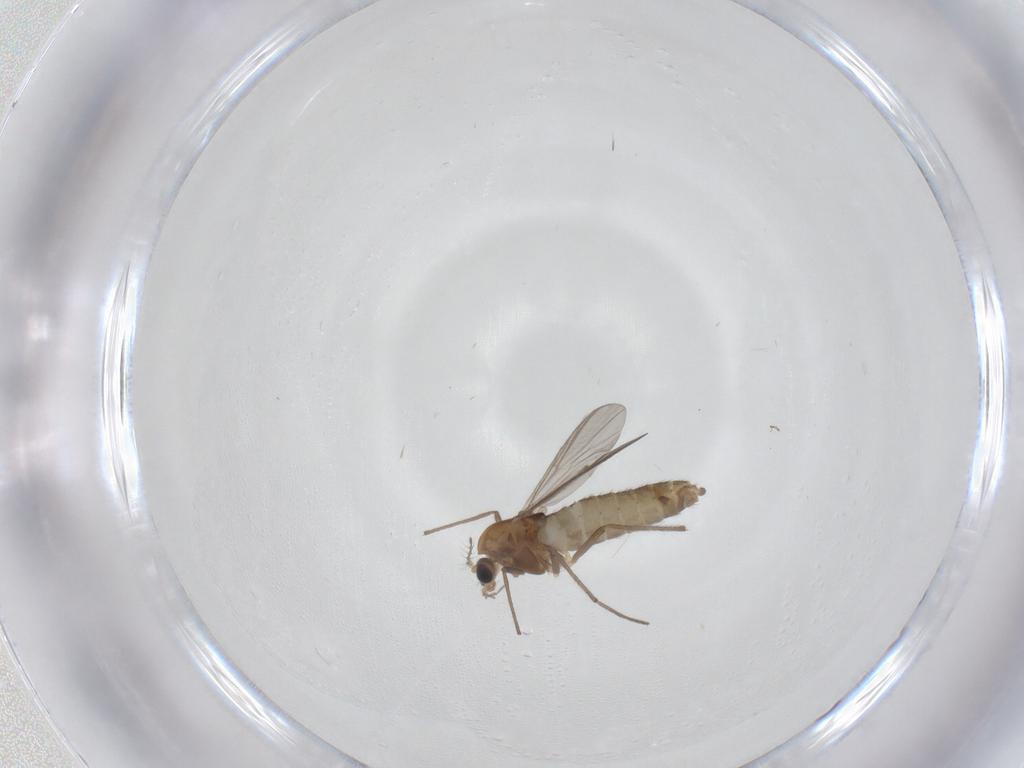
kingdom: Animalia
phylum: Arthropoda
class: Insecta
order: Diptera
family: Chironomidae
